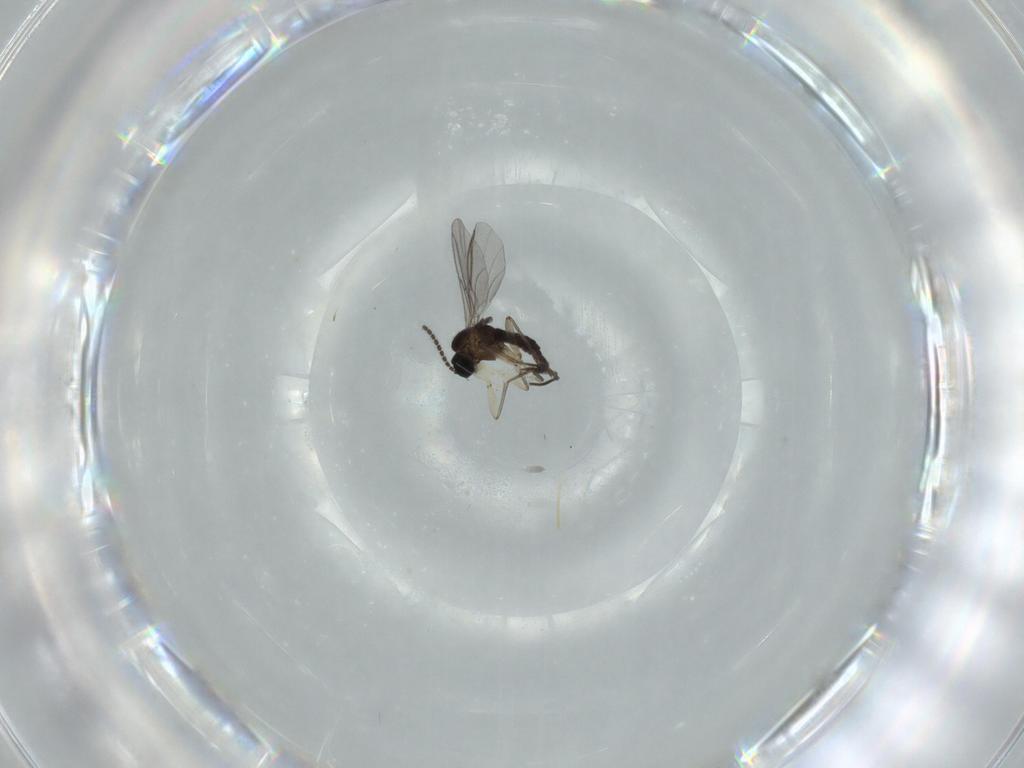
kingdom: Animalia
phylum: Arthropoda
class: Insecta
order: Diptera
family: Sciaridae
